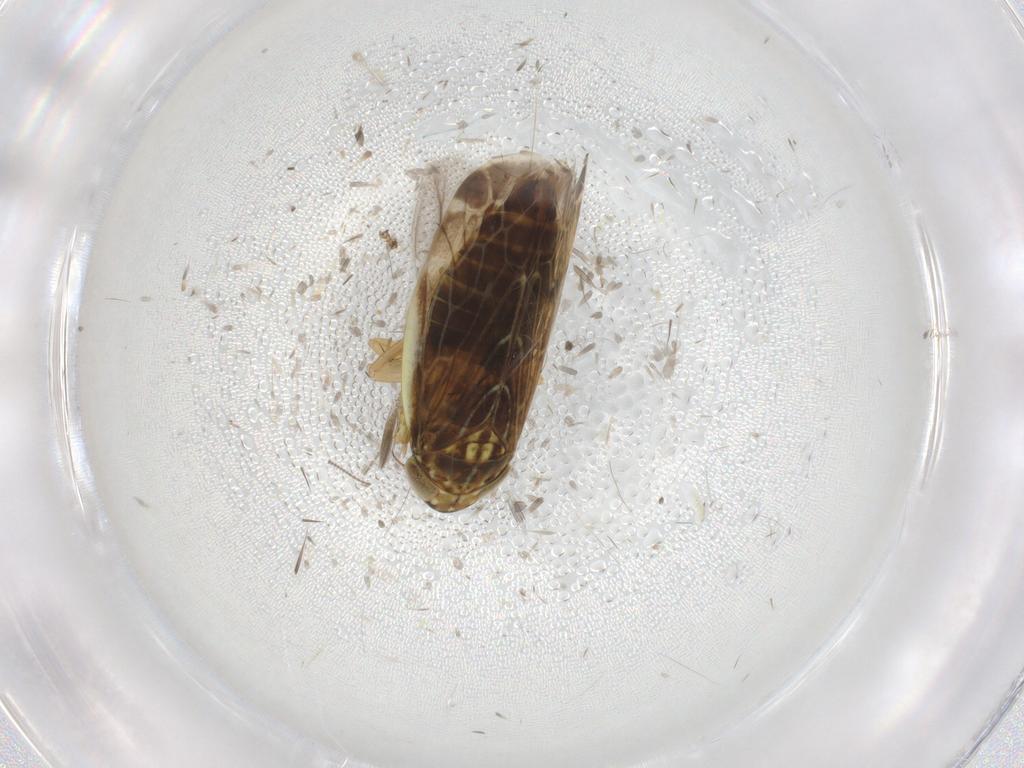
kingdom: Animalia
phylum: Arthropoda
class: Insecta
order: Hemiptera
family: Cicadellidae
